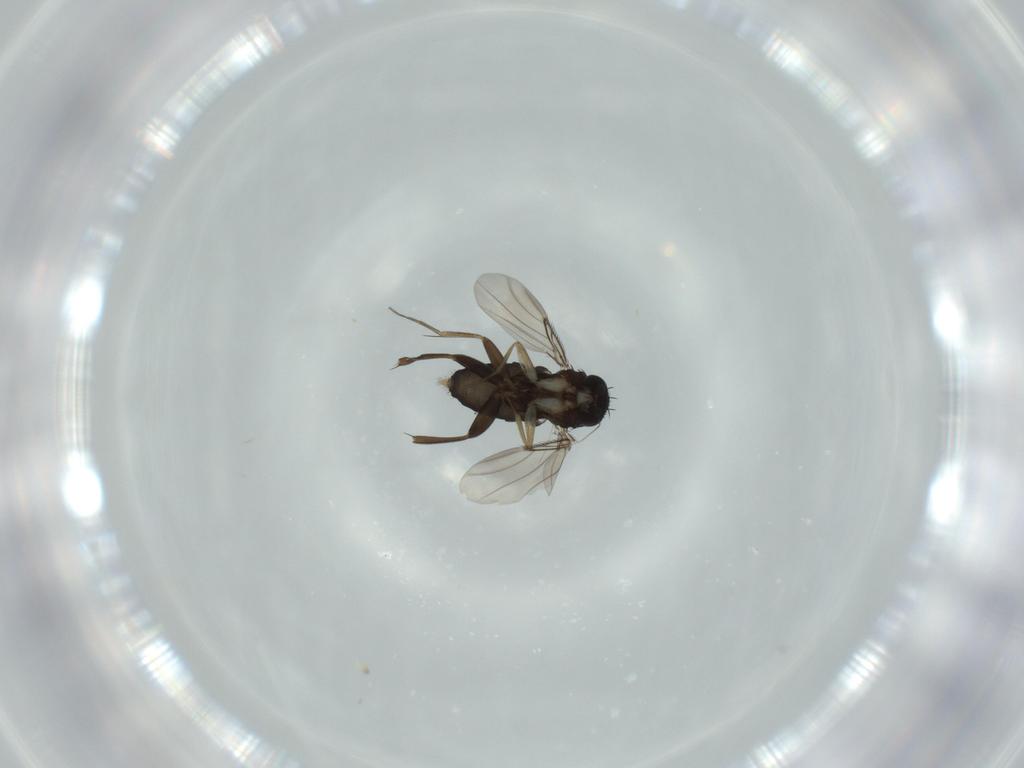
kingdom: Animalia
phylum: Arthropoda
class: Insecta
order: Diptera
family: Phoridae
